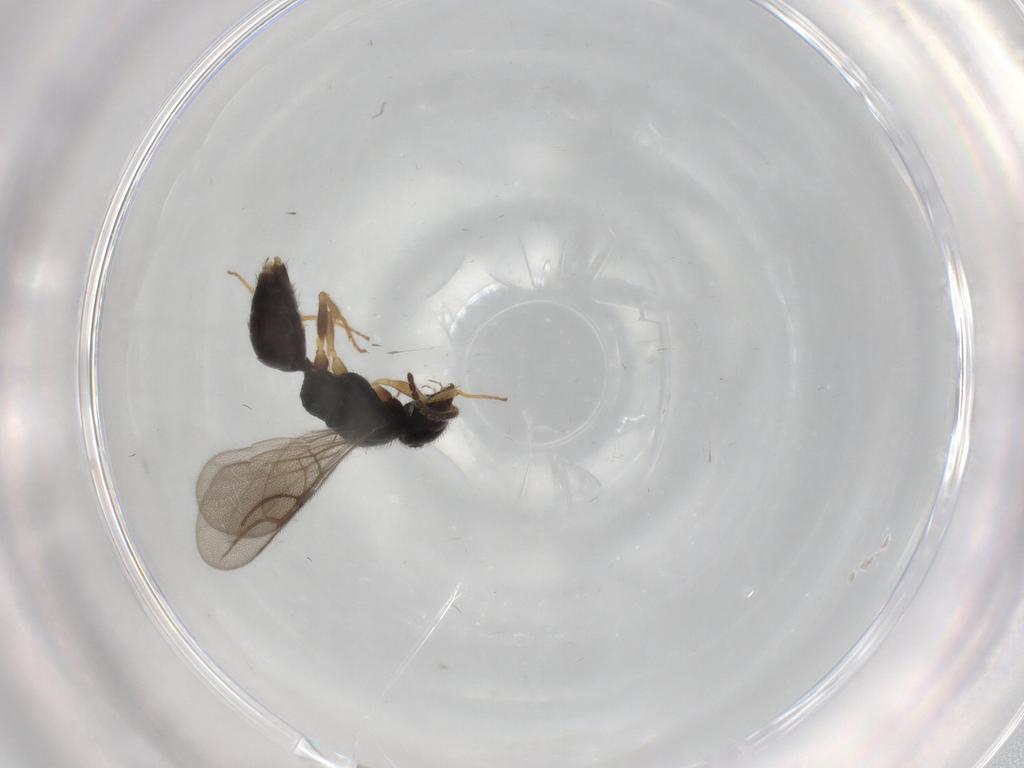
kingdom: Animalia
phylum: Arthropoda
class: Insecta
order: Hymenoptera
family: Bethylidae
